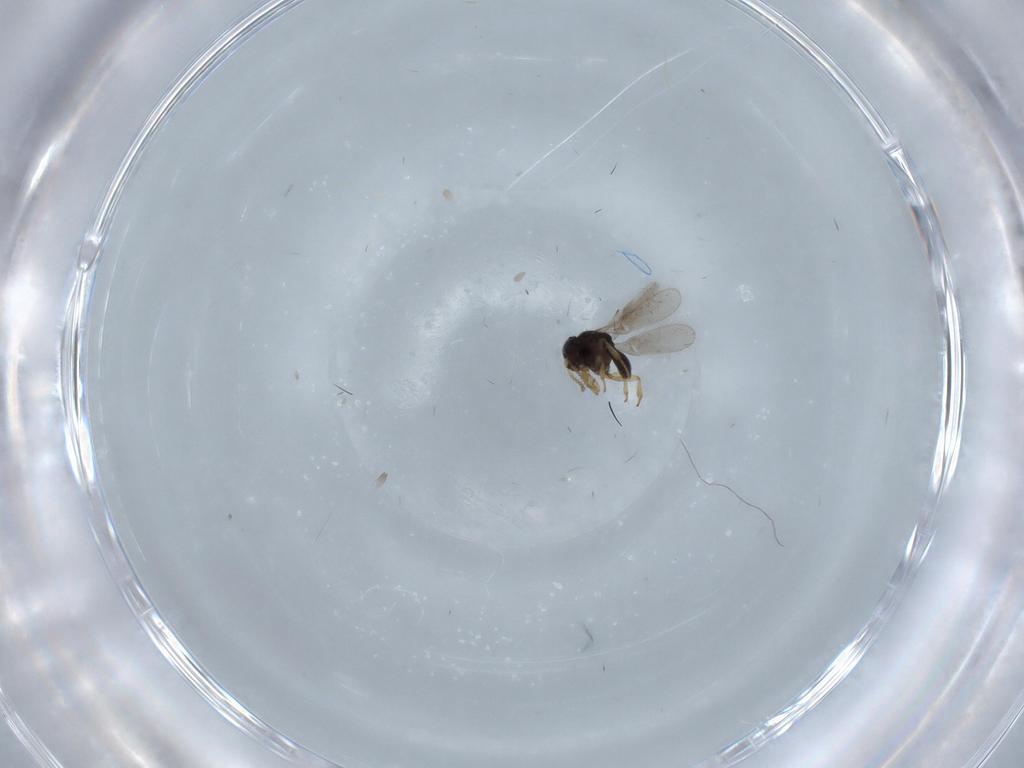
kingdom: Animalia
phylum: Arthropoda
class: Insecta
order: Hymenoptera
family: Scelionidae
